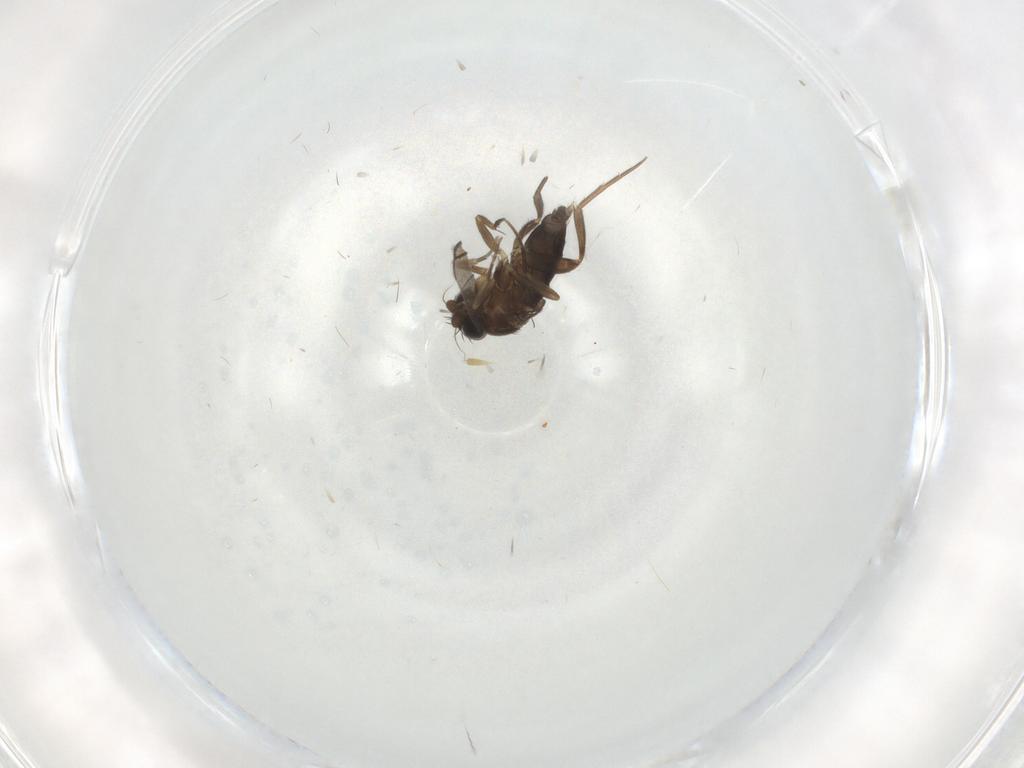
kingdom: Animalia
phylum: Arthropoda
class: Insecta
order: Diptera
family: Phoridae
